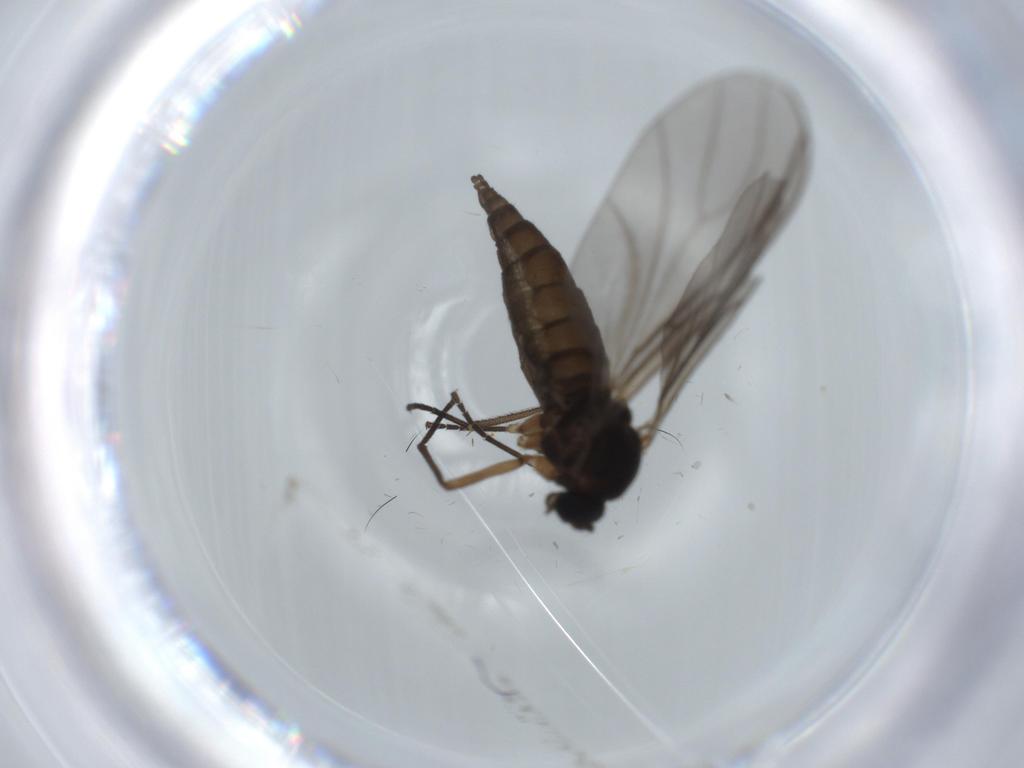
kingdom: Animalia
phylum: Arthropoda
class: Insecta
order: Diptera
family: Sciaridae
